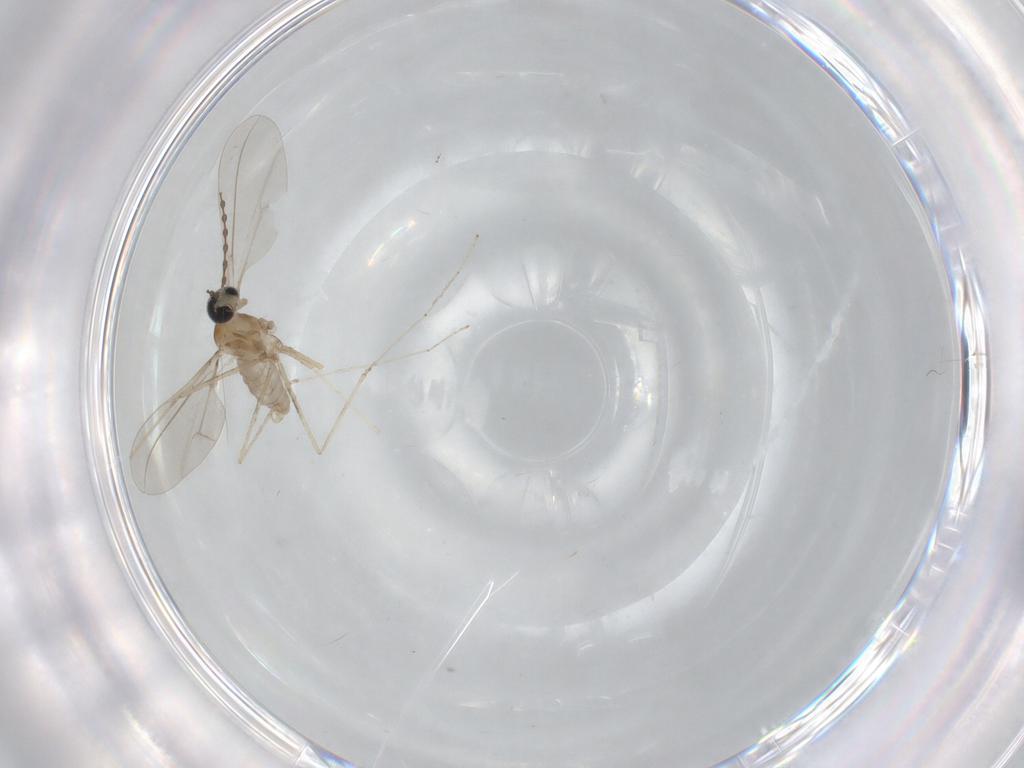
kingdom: Animalia
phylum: Arthropoda
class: Insecta
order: Diptera
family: Cecidomyiidae
